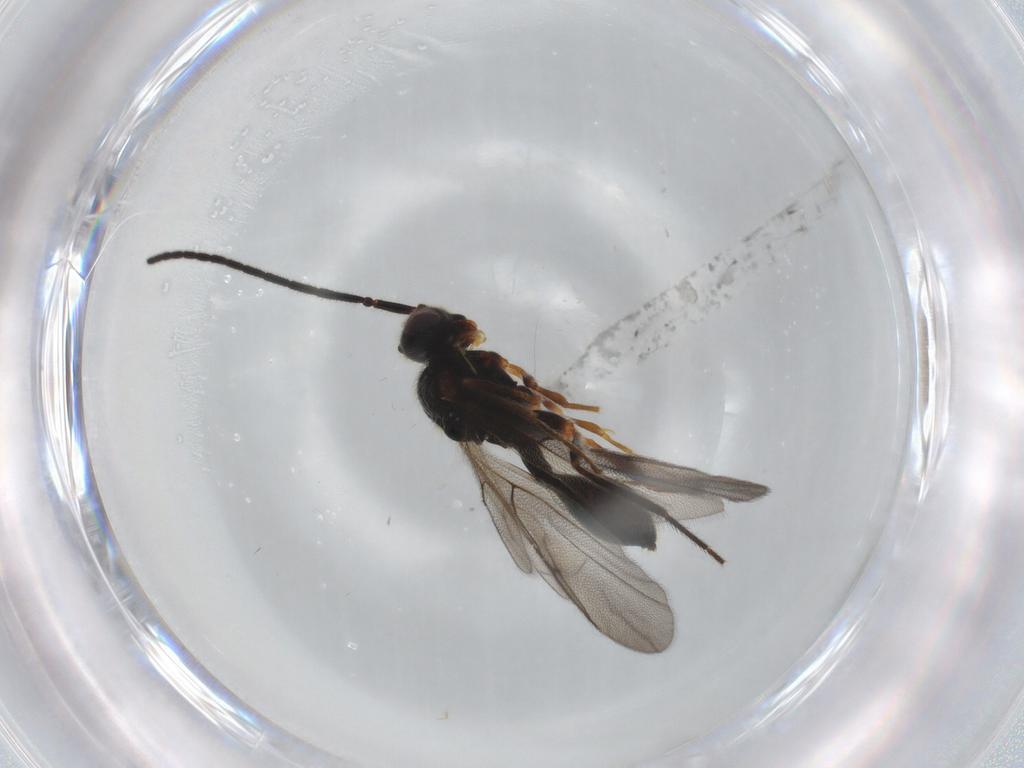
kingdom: Animalia
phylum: Arthropoda
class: Insecta
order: Hymenoptera
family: Diapriidae
